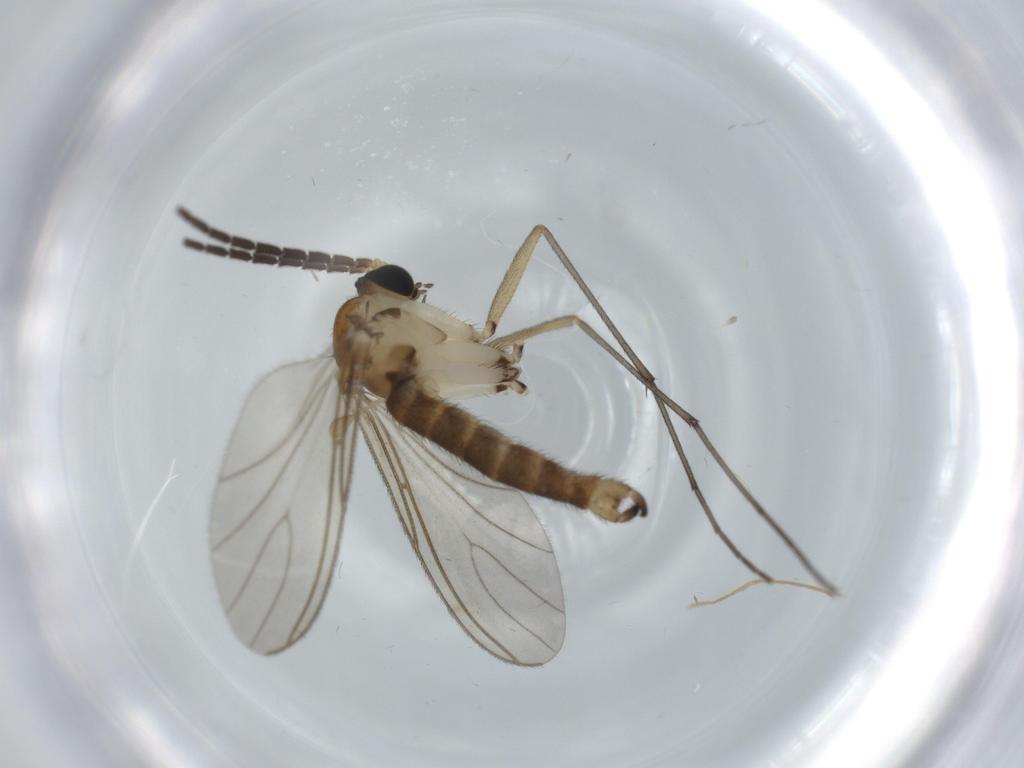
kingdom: Animalia
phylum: Arthropoda
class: Insecta
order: Diptera
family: Sciaridae
